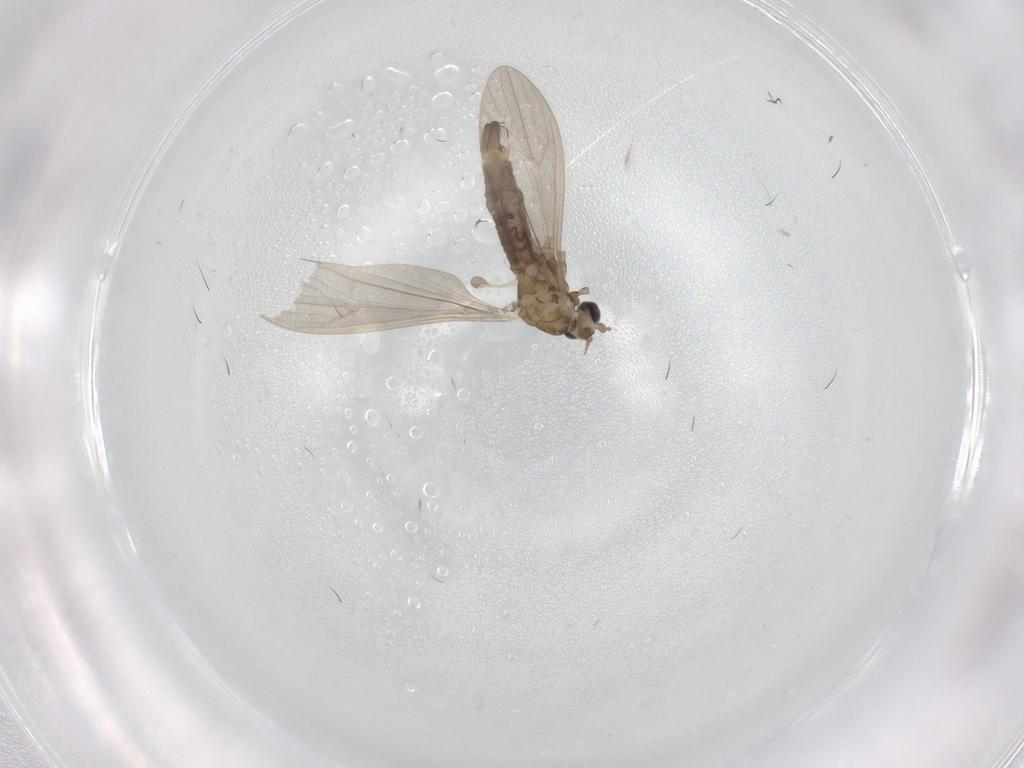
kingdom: Animalia
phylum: Arthropoda
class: Insecta
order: Diptera
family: Limoniidae
